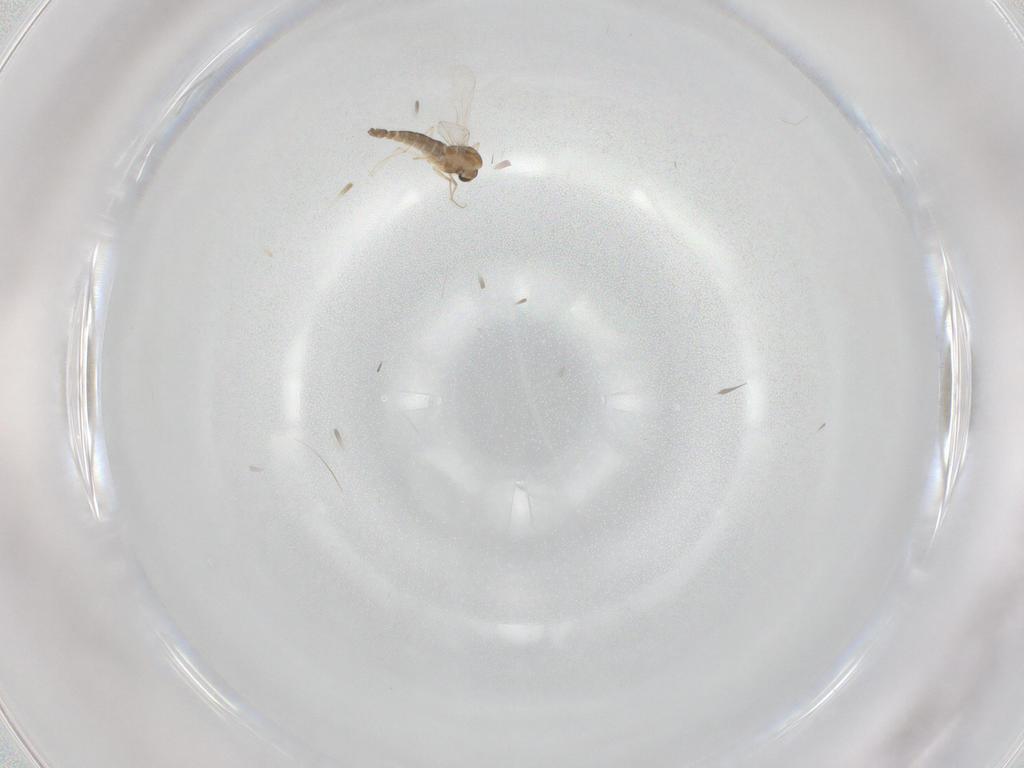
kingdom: Animalia
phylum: Arthropoda
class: Insecta
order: Diptera
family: Chironomidae
